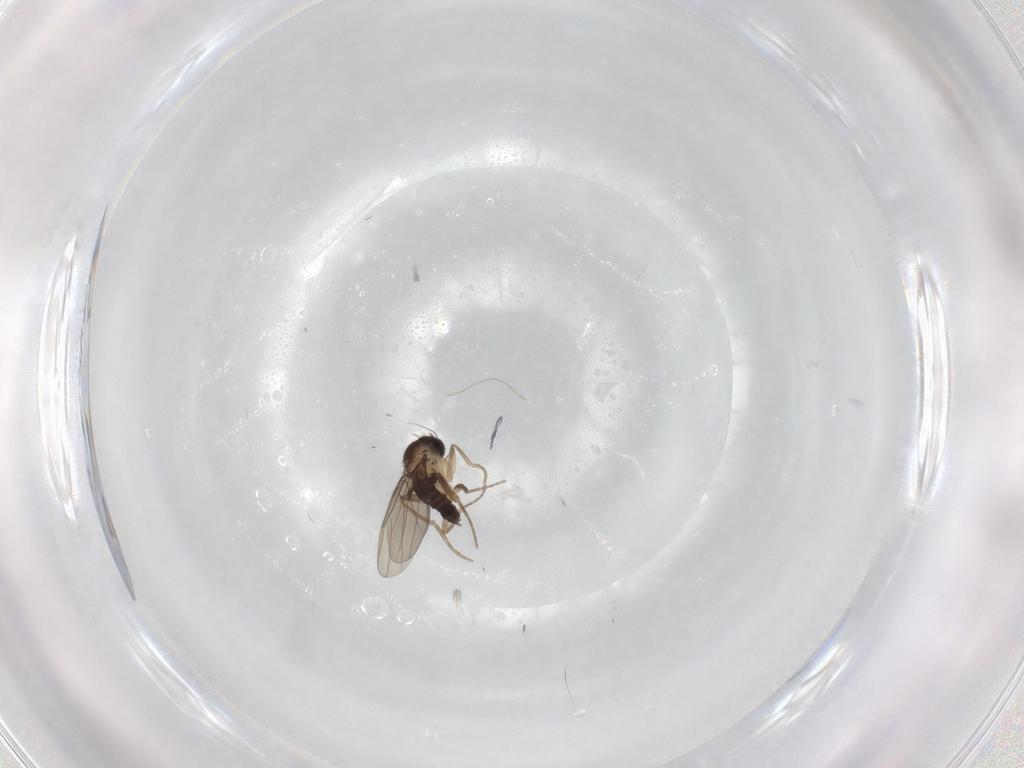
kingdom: Animalia
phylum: Arthropoda
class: Insecta
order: Diptera
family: Phoridae
